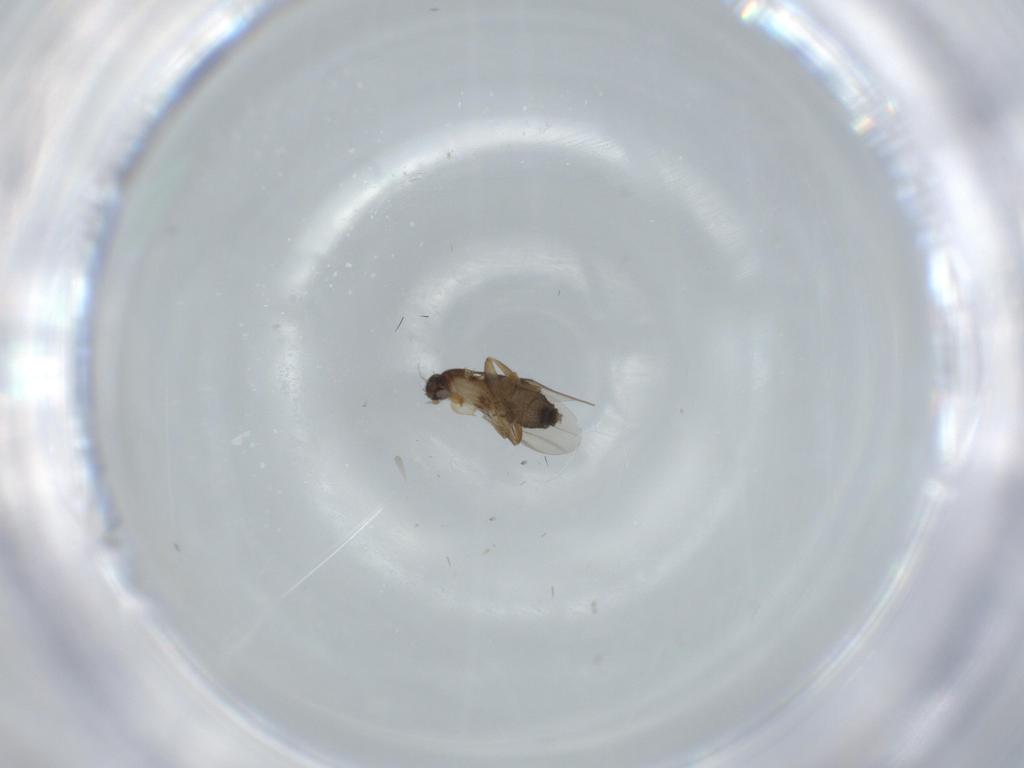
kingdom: Animalia
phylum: Arthropoda
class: Insecta
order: Diptera
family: Phoridae
